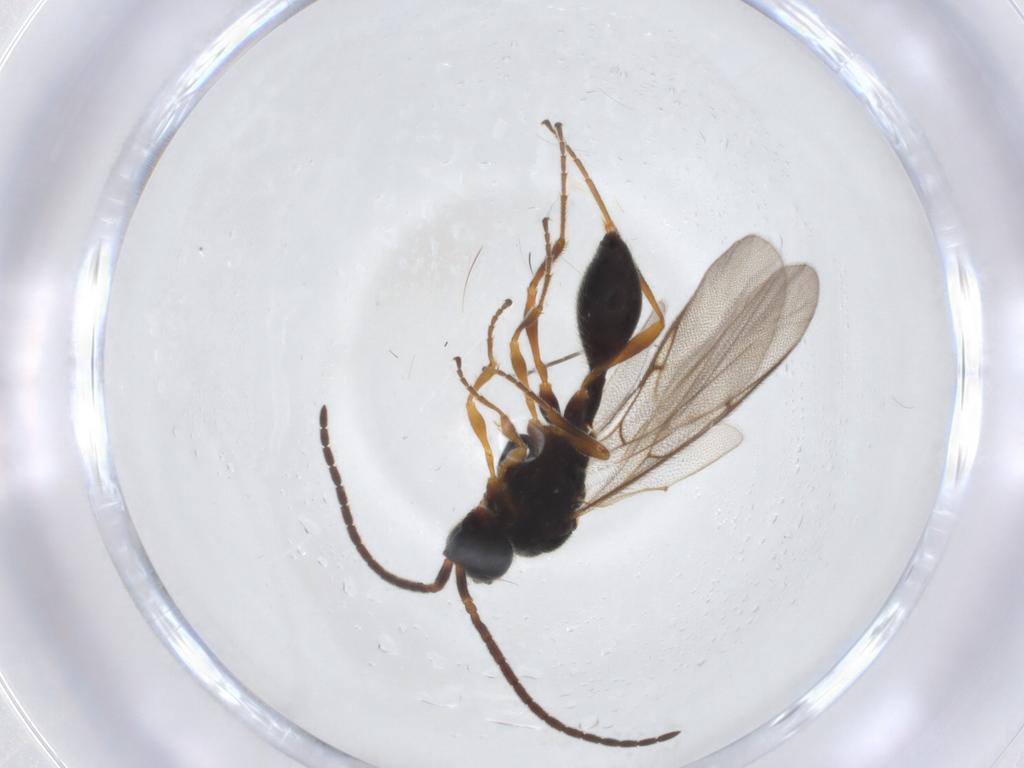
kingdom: Animalia
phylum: Arthropoda
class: Insecta
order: Hymenoptera
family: Diapriidae
